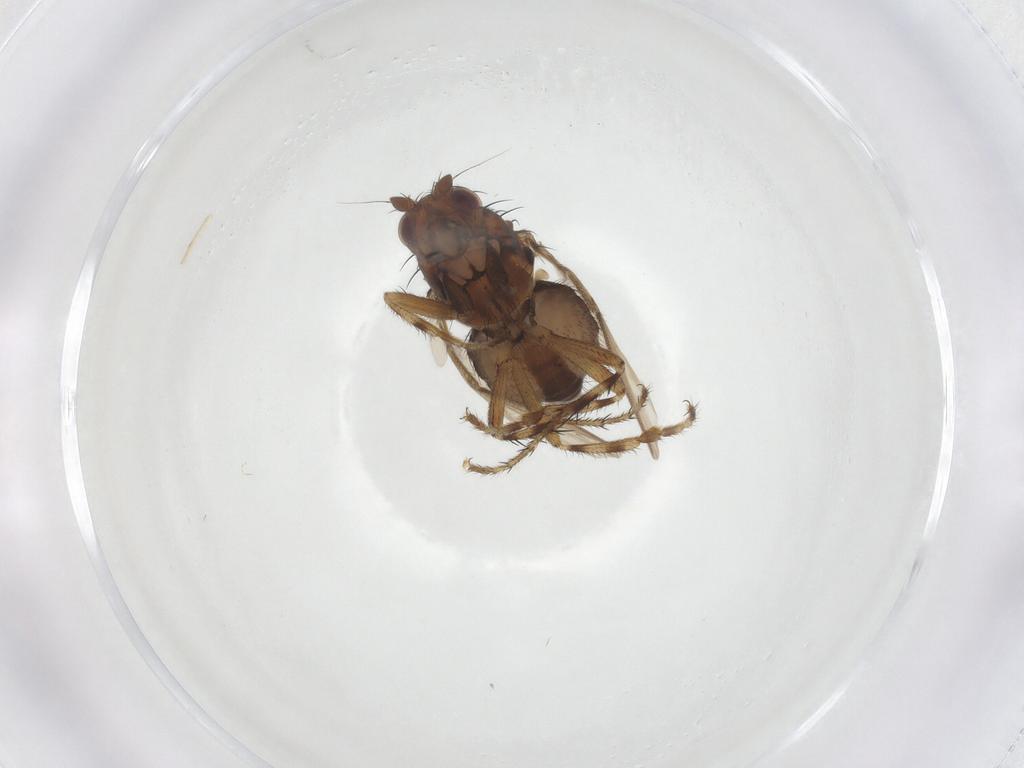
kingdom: Animalia
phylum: Arthropoda
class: Insecta
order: Diptera
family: Sphaeroceridae
